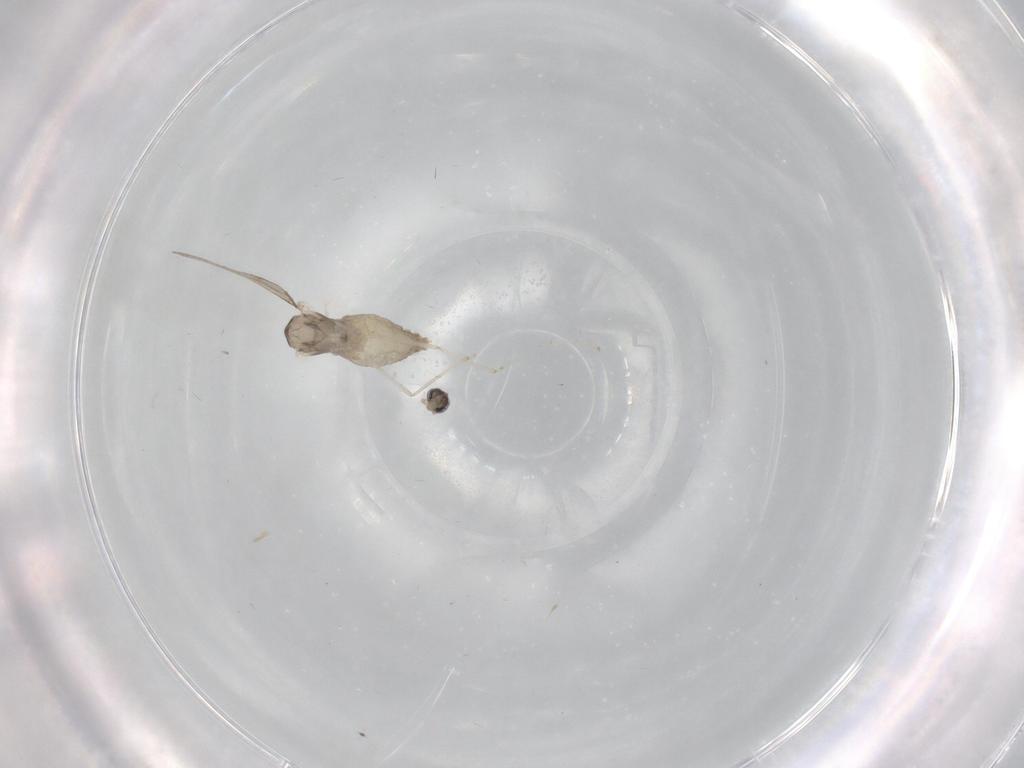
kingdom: Animalia
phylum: Arthropoda
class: Insecta
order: Diptera
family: Cecidomyiidae
